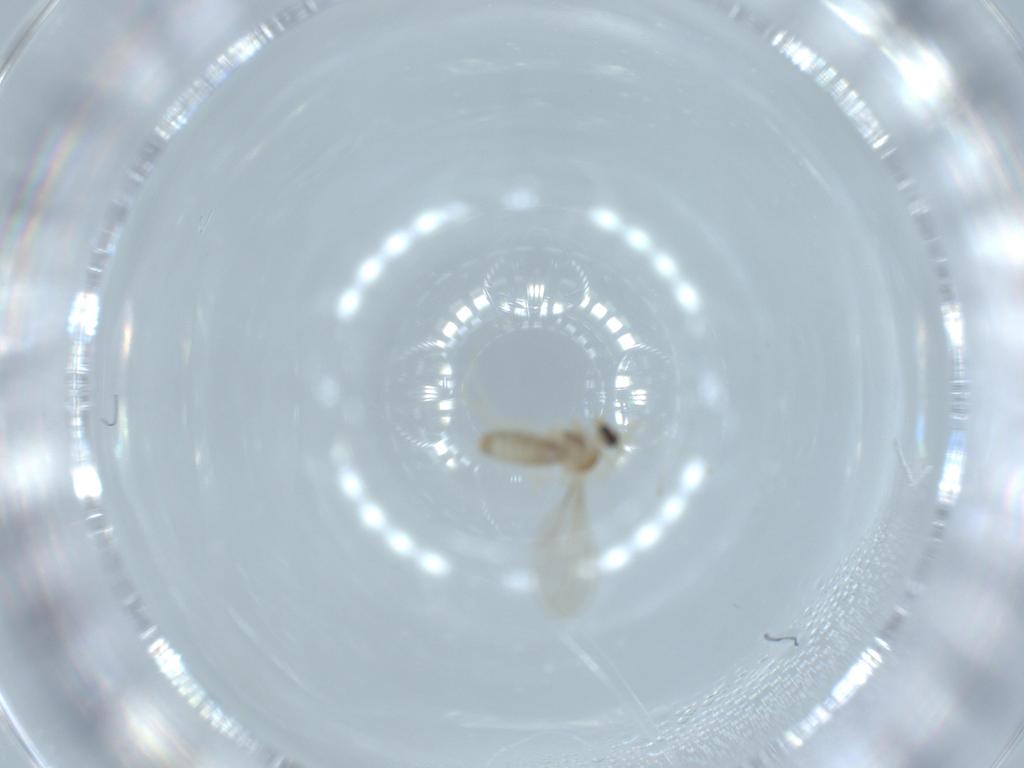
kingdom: Animalia
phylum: Arthropoda
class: Insecta
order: Diptera
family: Cecidomyiidae
